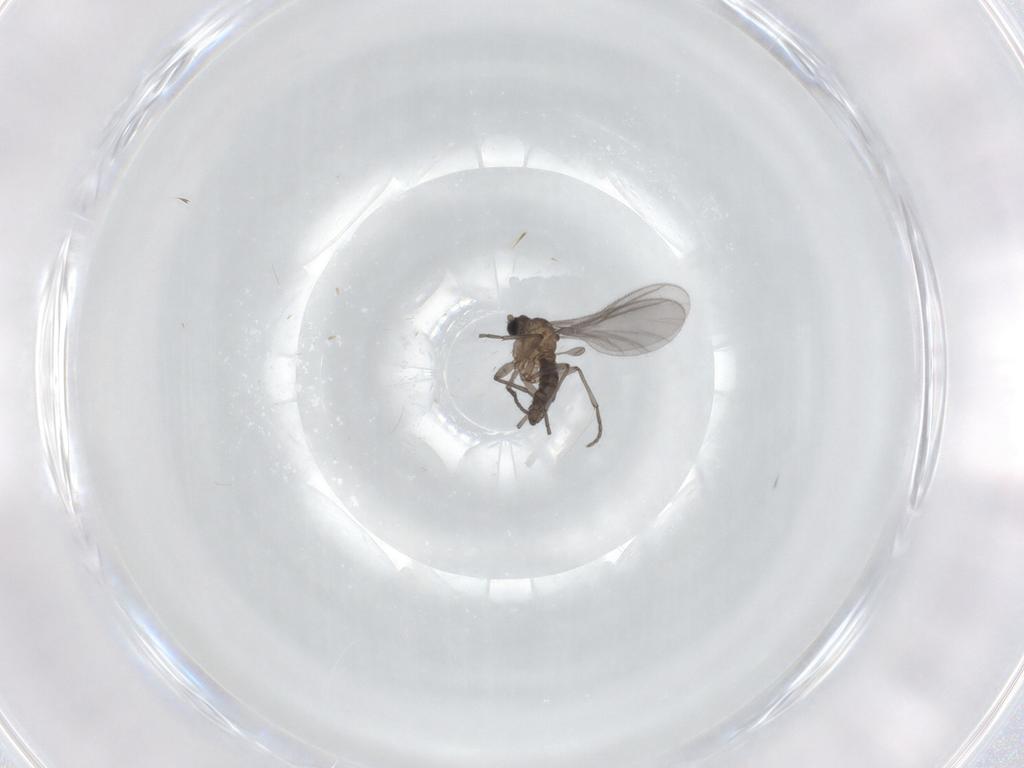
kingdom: Animalia
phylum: Arthropoda
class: Insecta
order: Diptera
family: Sciaridae
